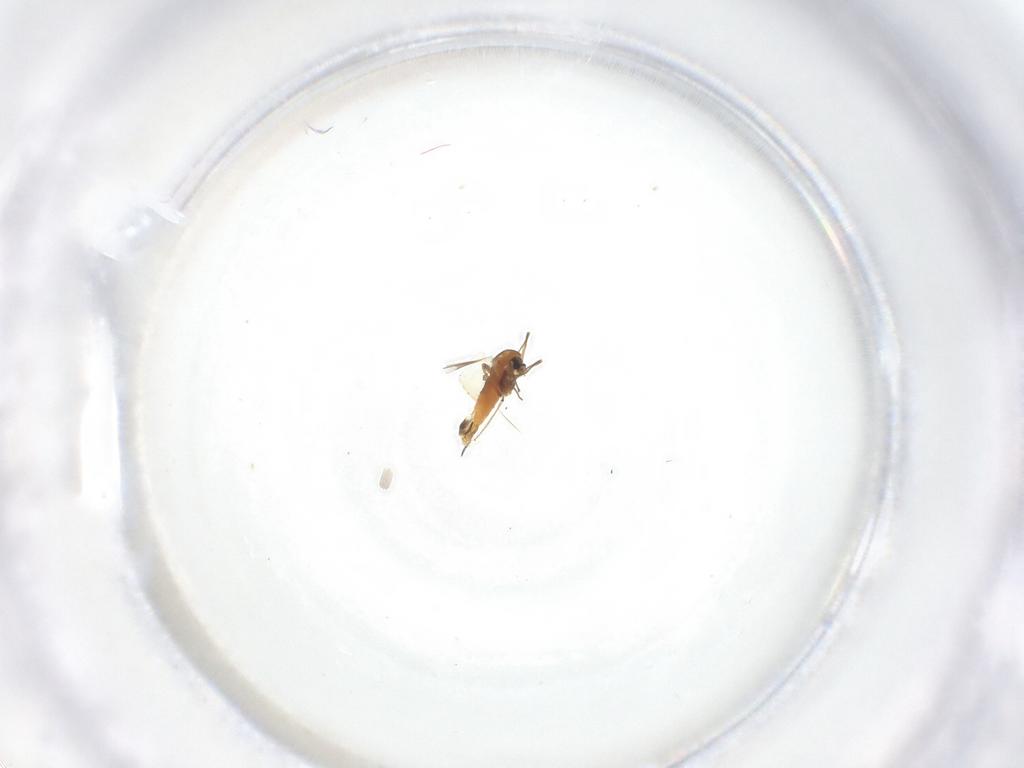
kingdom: Animalia
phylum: Arthropoda
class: Insecta
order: Diptera
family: Chironomidae
